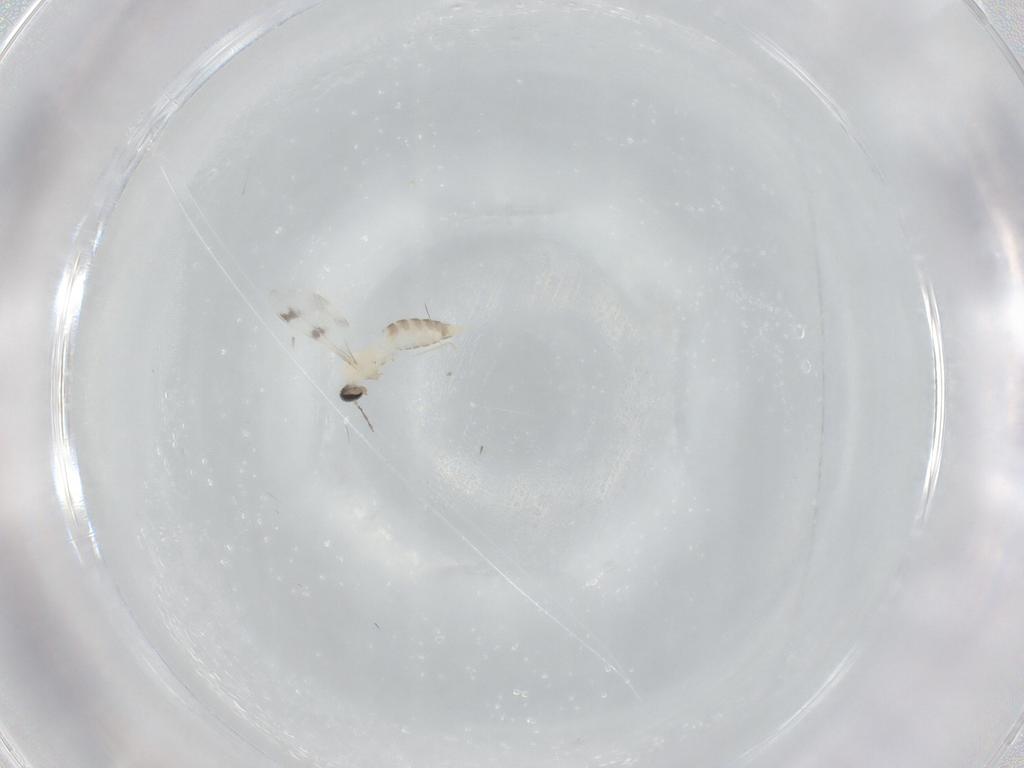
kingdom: Animalia
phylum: Arthropoda
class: Insecta
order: Diptera
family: Cecidomyiidae
